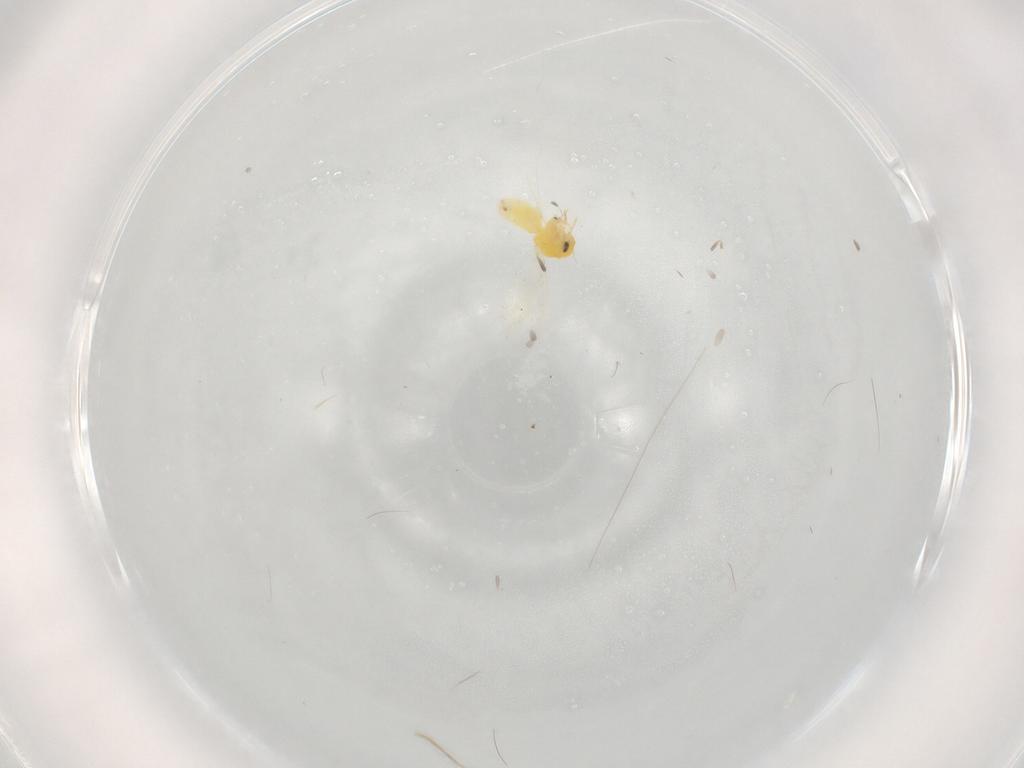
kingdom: Animalia
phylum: Arthropoda
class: Insecta
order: Hemiptera
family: Aleyrodidae
